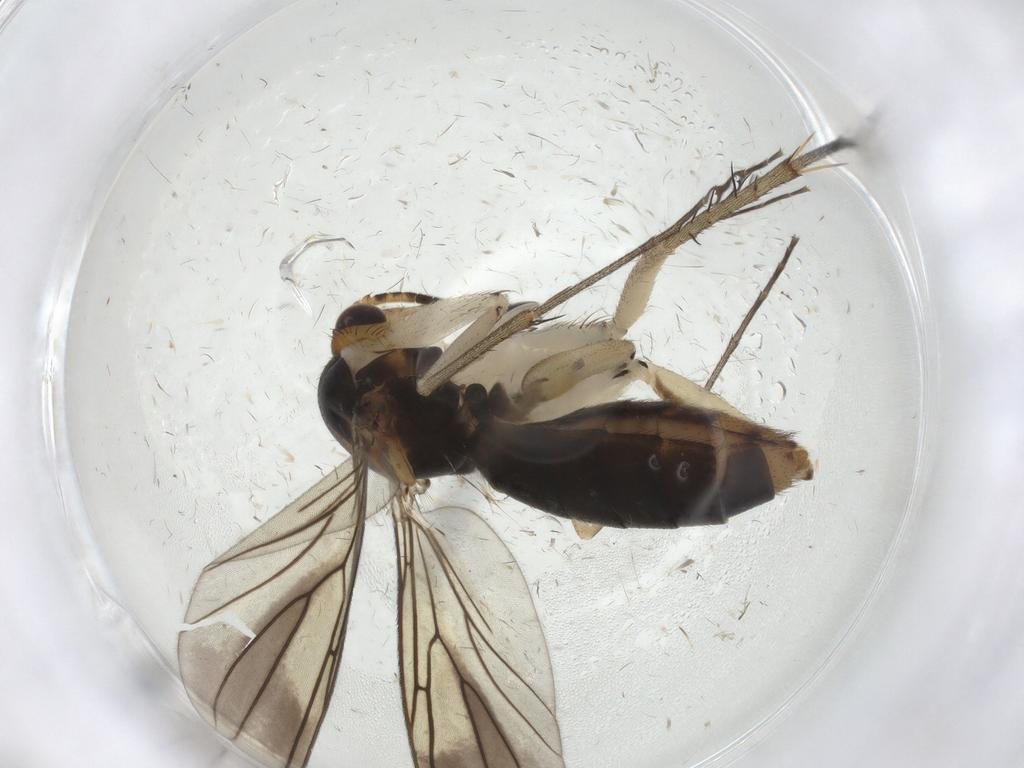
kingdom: Animalia
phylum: Arthropoda
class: Insecta
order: Diptera
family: Mycetophilidae
